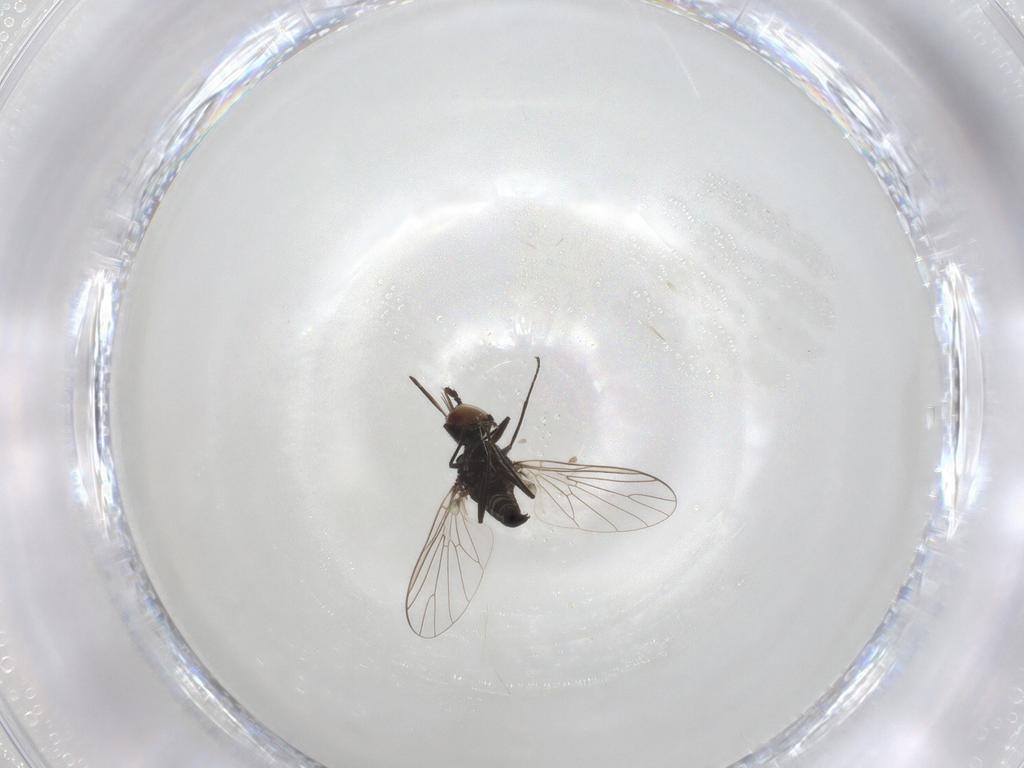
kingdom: Animalia
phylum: Arthropoda
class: Insecta
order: Diptera
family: Bombyliidae
